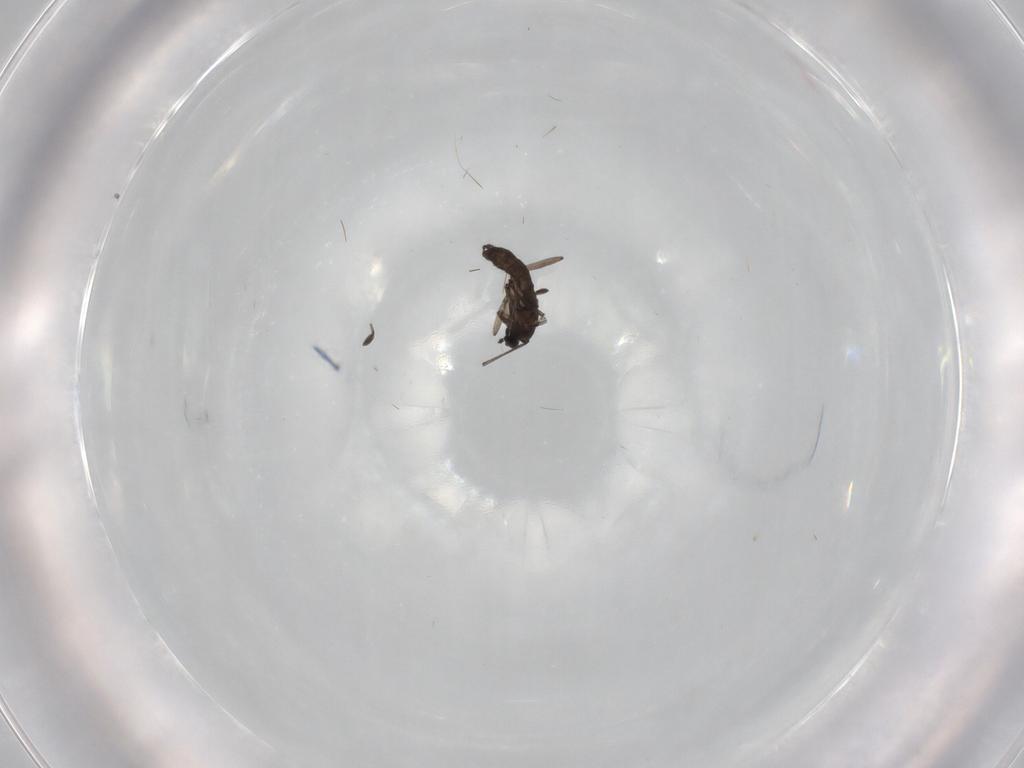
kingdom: Animalia
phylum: Arthropoda
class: Insecta
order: Diptera
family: Sciaridae
